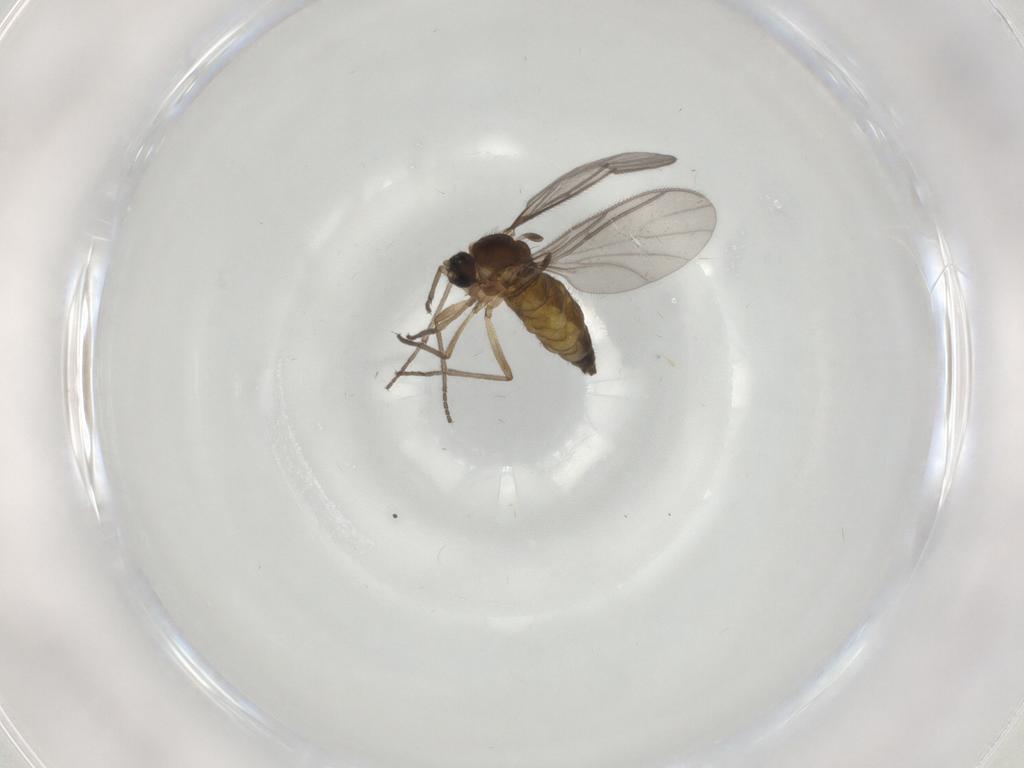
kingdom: Animalia
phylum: Arthropoda
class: Insecta
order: Diptera
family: Sciaridae
